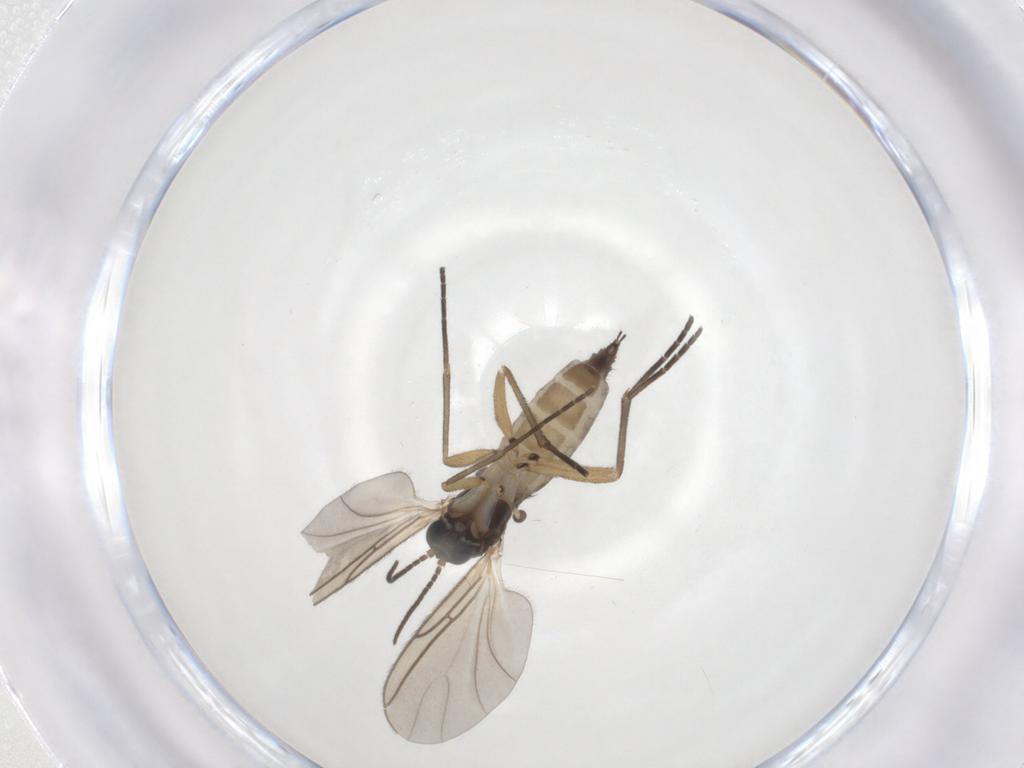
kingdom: Animalia
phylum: Arthropoda
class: Insecta
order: Diptera
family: Sciaridae
